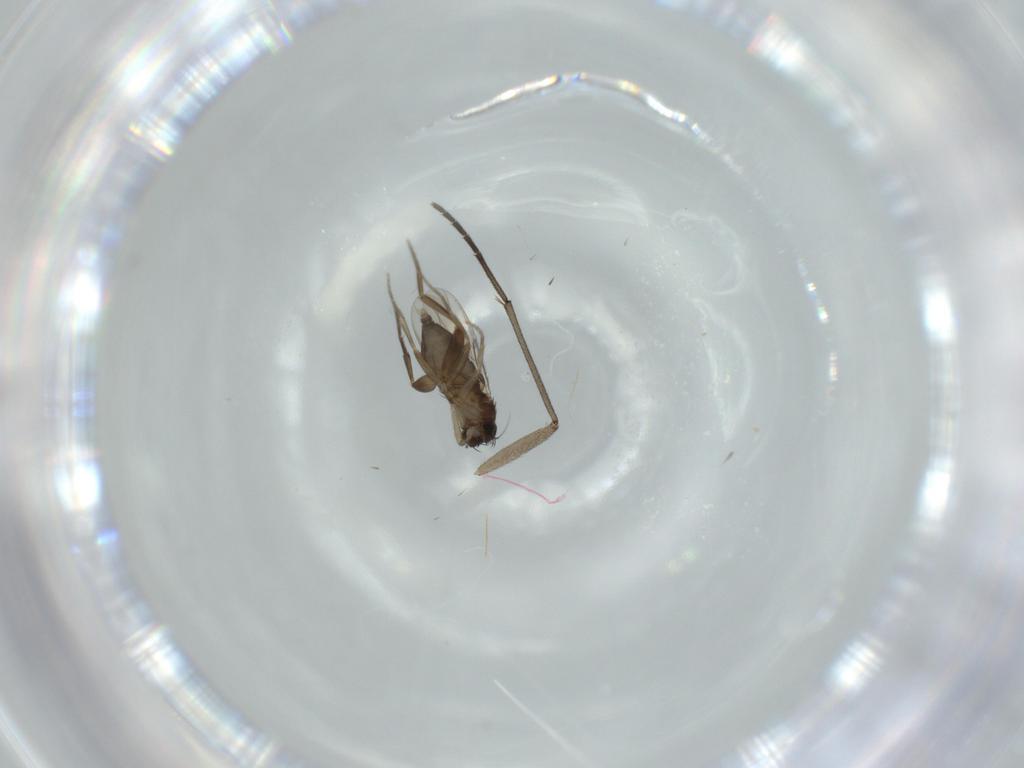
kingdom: Animalia
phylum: Arthropoda
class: Insecta
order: Diptera
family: Phoridae
